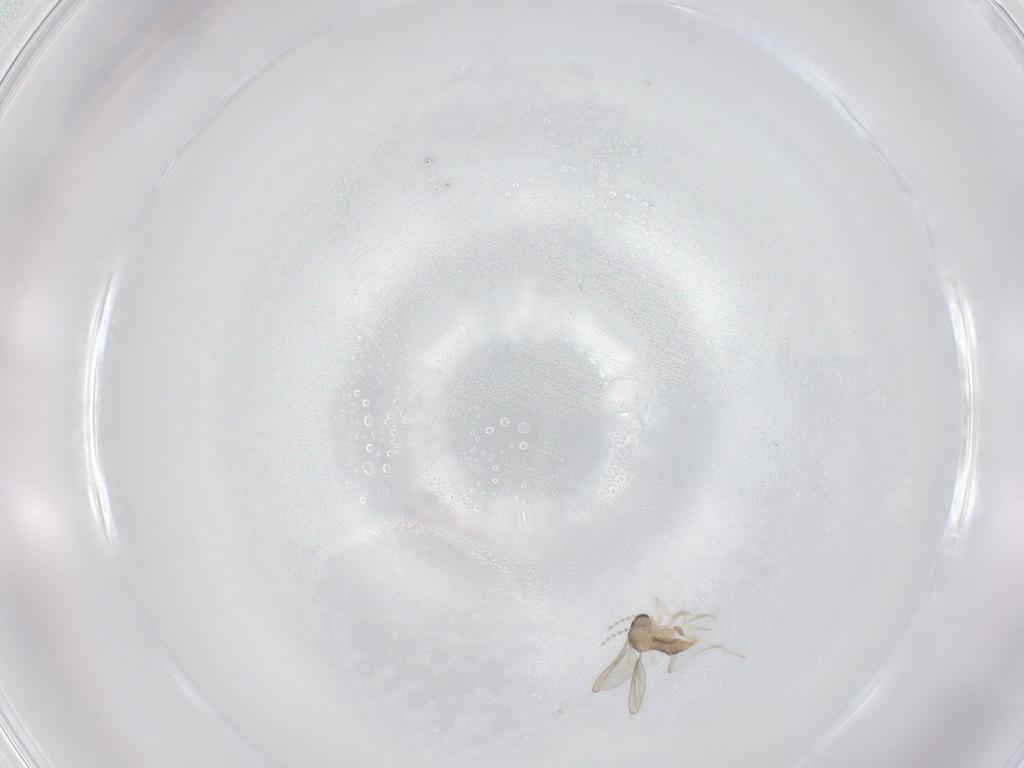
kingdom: Animalia
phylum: Arthropoda
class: Insecta
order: Diptera
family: Cecidomyiidae
